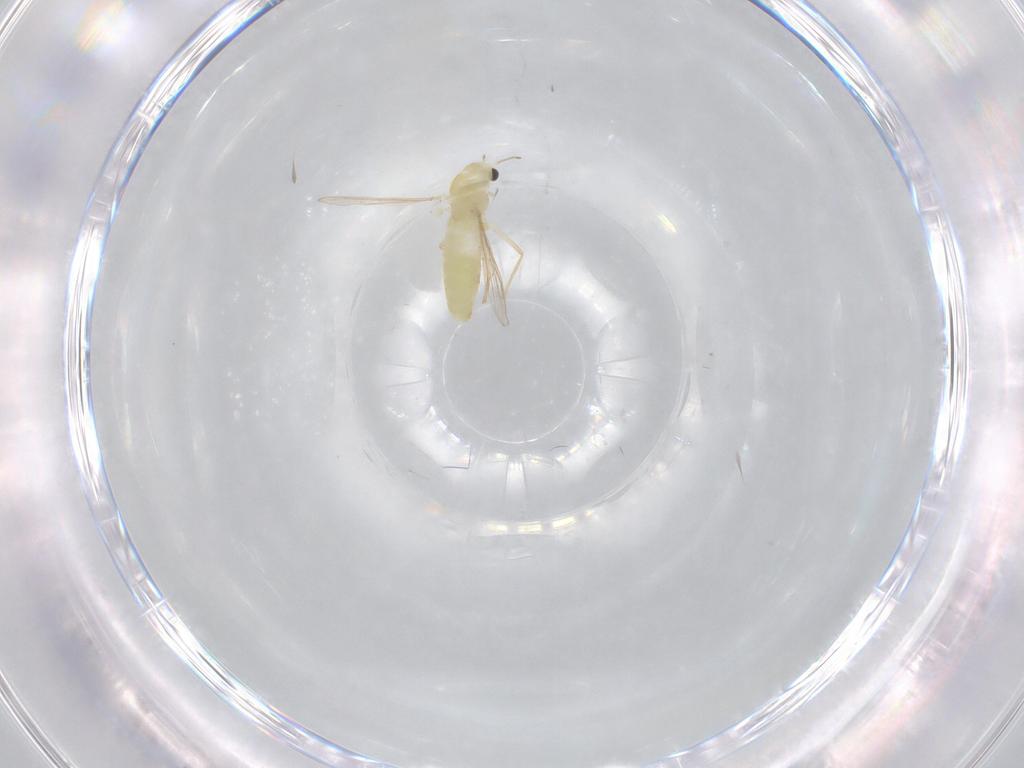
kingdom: Animalia
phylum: Arthropoda
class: Insecta
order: Diptera
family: Chironomidae
